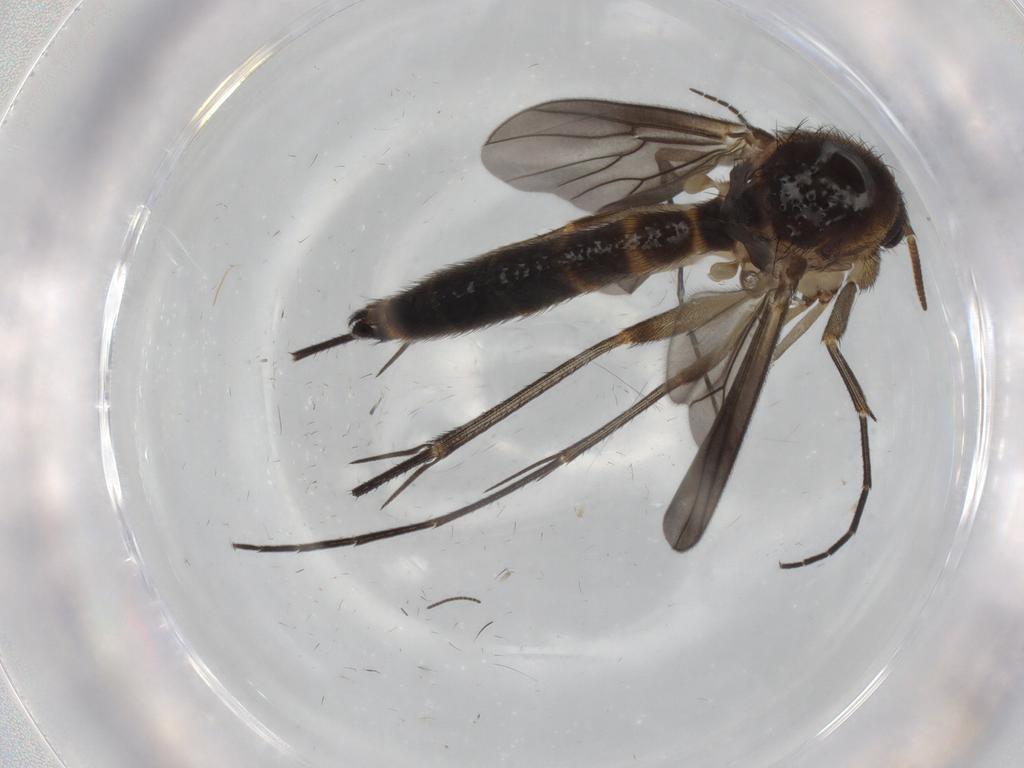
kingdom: Animalia
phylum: Arthropoda
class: Insecta
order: Diptera
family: Mycetophilidae
